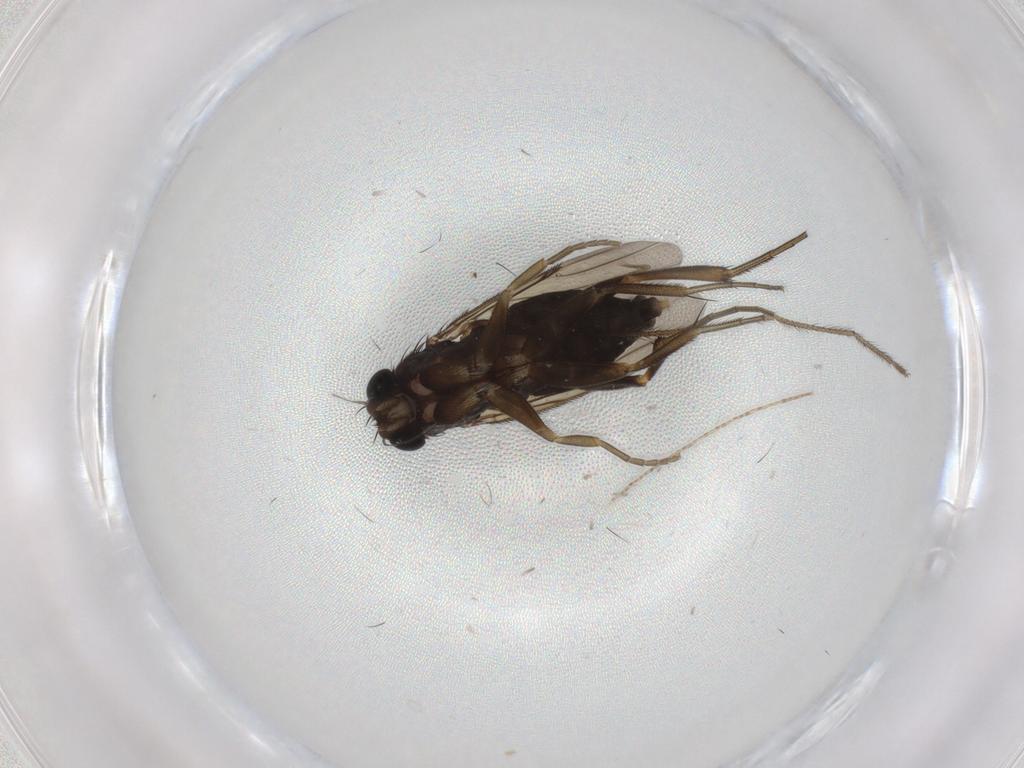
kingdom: Animalia
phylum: Arthropoda
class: Insecta
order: Diptera
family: Phoridae
